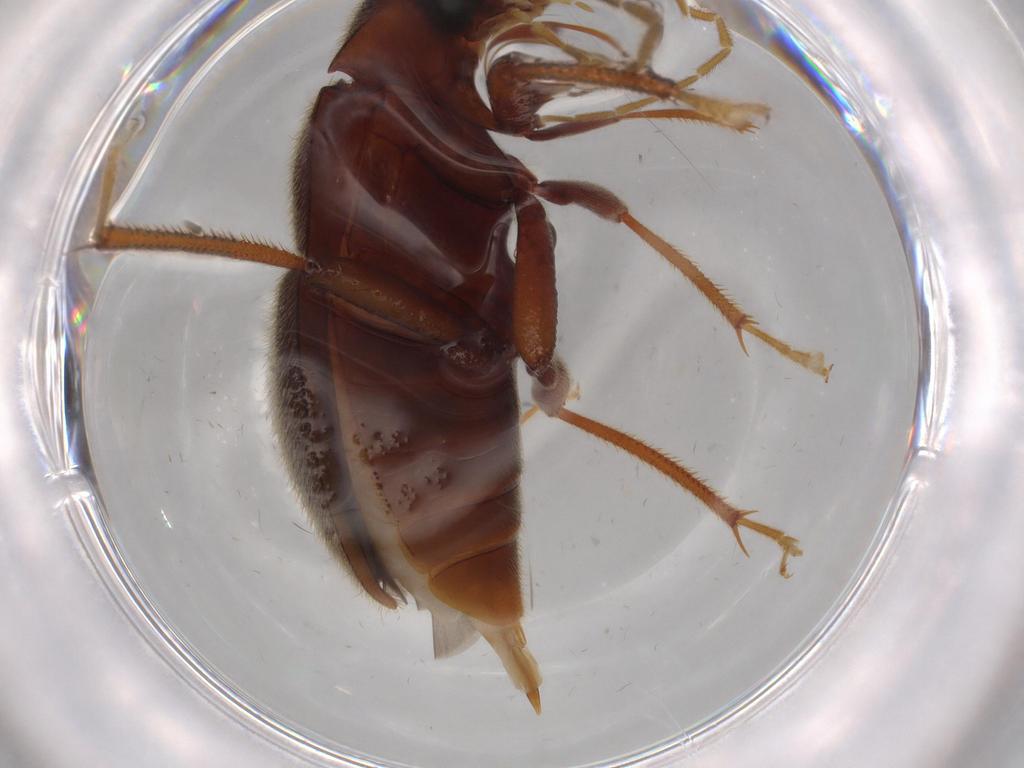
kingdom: Animalia
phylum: Arthropoda
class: Insecta
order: Coleoptera
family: Ptilodactylidae
